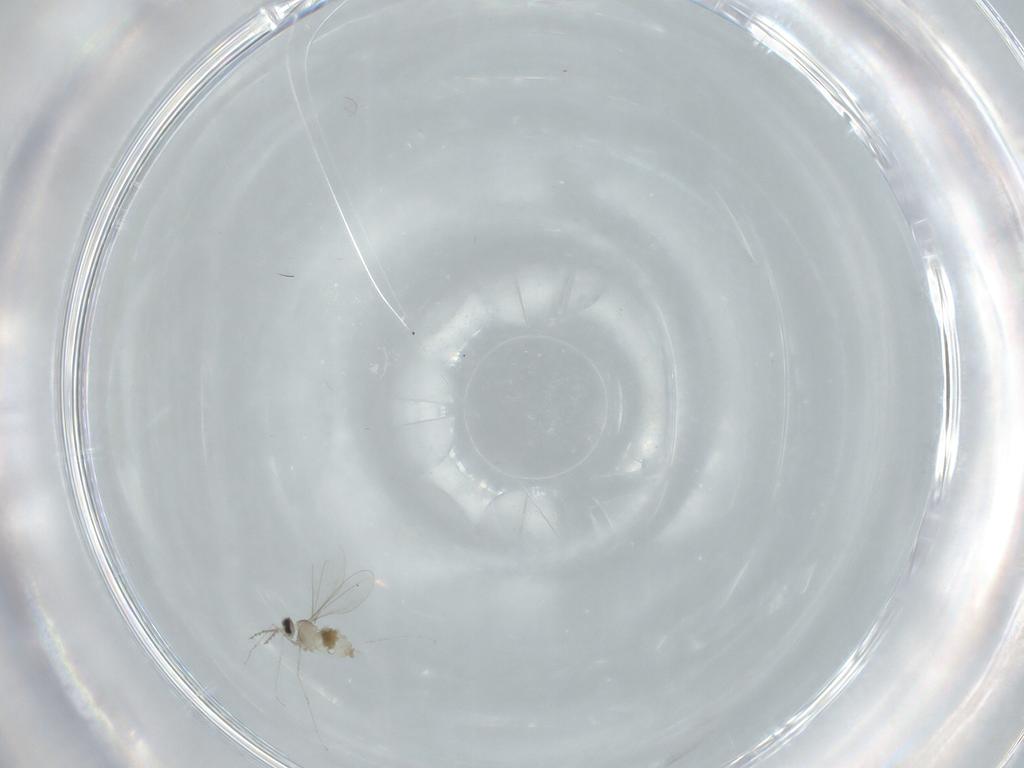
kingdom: Animalia
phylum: Arthropoda
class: Insecta
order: Diptera
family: Cecidomyiidae
